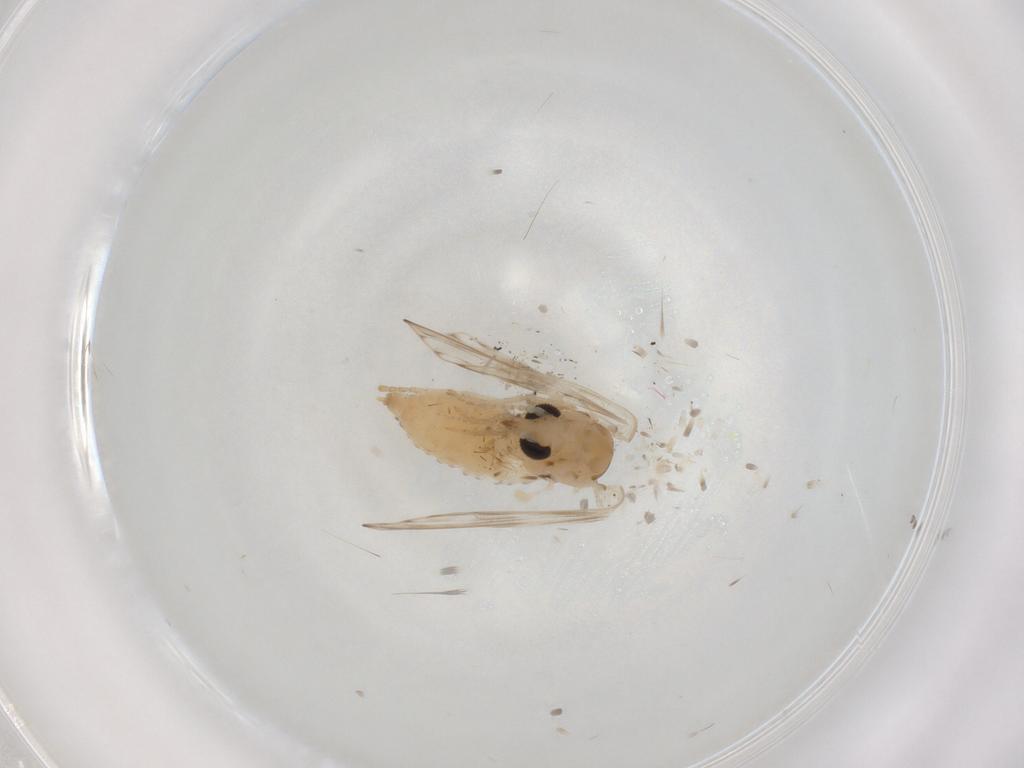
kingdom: Animalia
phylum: Arthropoda
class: Insecta
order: Diptera
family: Psychodidae
